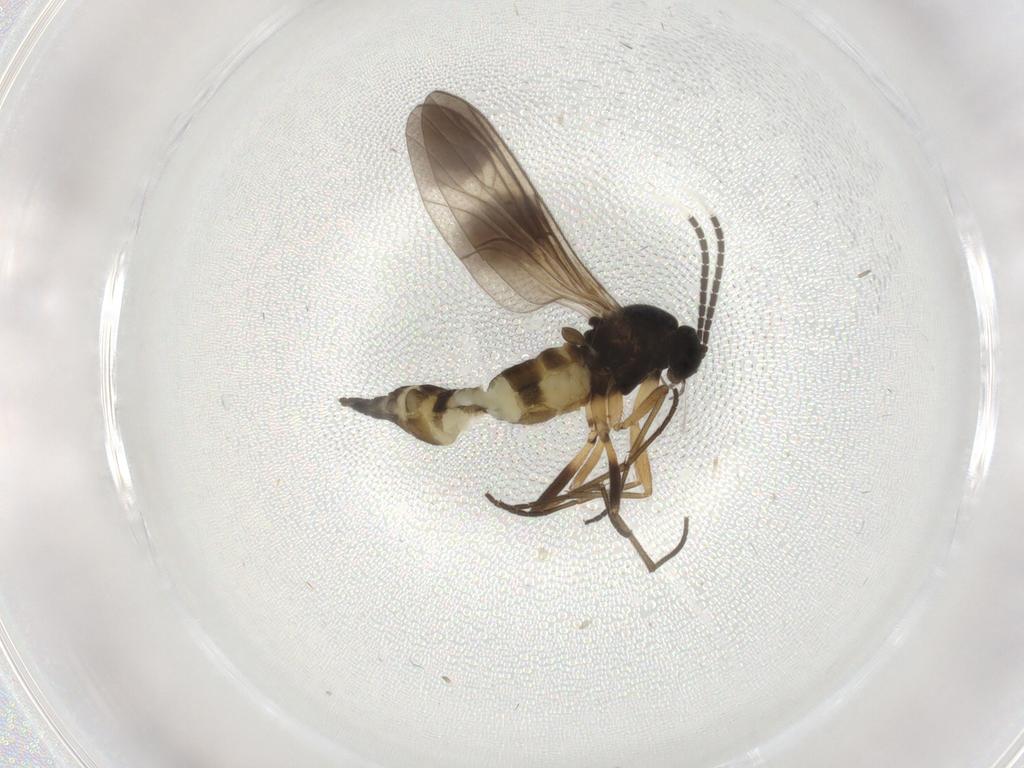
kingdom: Animalia
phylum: Arthropoda
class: Insecta
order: Diptera
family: Sciaridae
